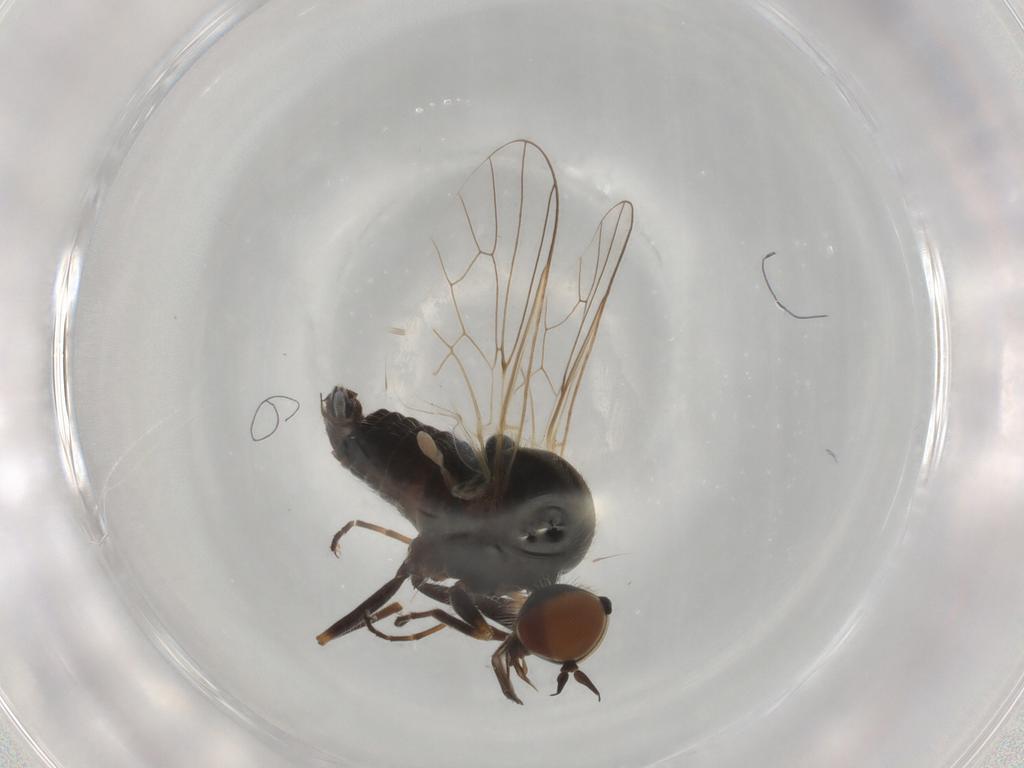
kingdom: Animalia
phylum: Arthropoda
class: Insecta
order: Diptera
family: Bombyliidae
